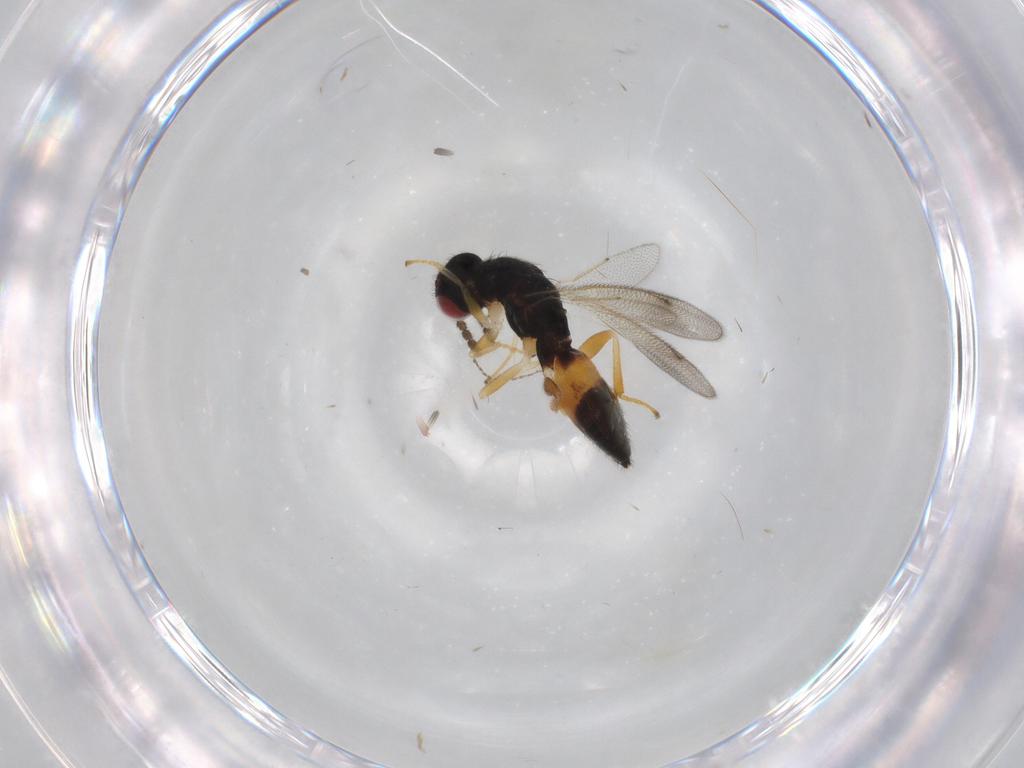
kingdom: Animalia
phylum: Arthropoda
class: Insecta
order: Hymenoptera
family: Eulophidae
